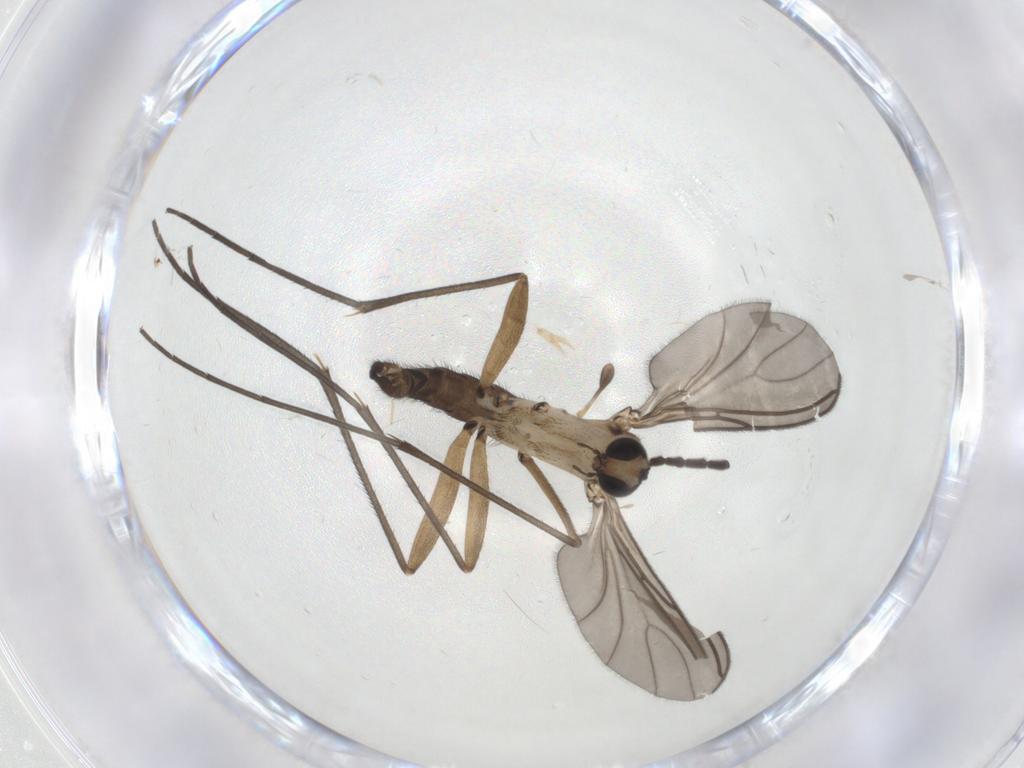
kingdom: Animalia
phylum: Arthropoda
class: Insecta
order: Diptera
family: Sciaridae
